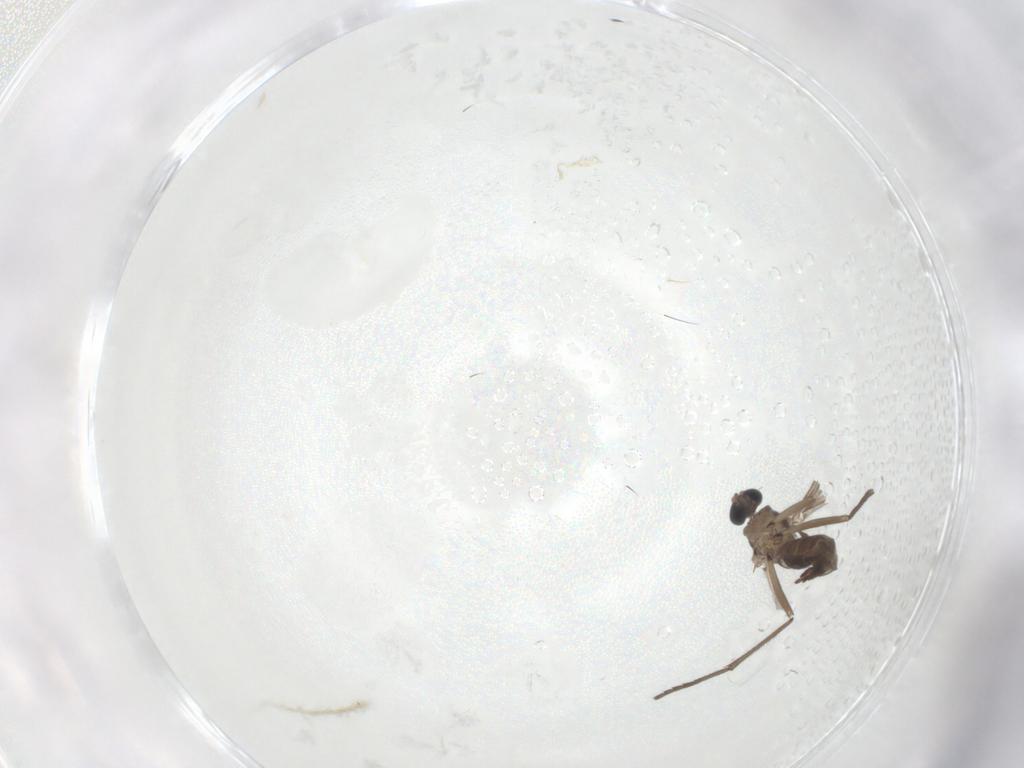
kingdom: Animalia
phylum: Arthropoda
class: Insecta
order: Diptera
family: Sciaridae
